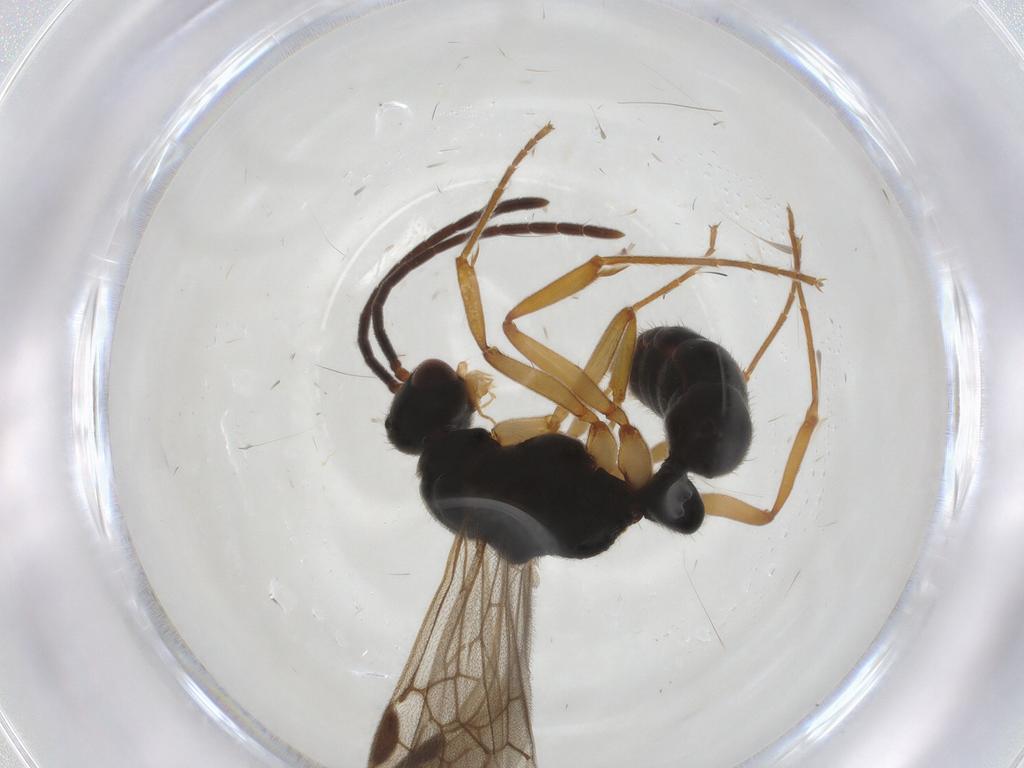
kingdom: Animalia
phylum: Arthropoda
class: Insecta
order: Hymenoptera
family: Formicidae
